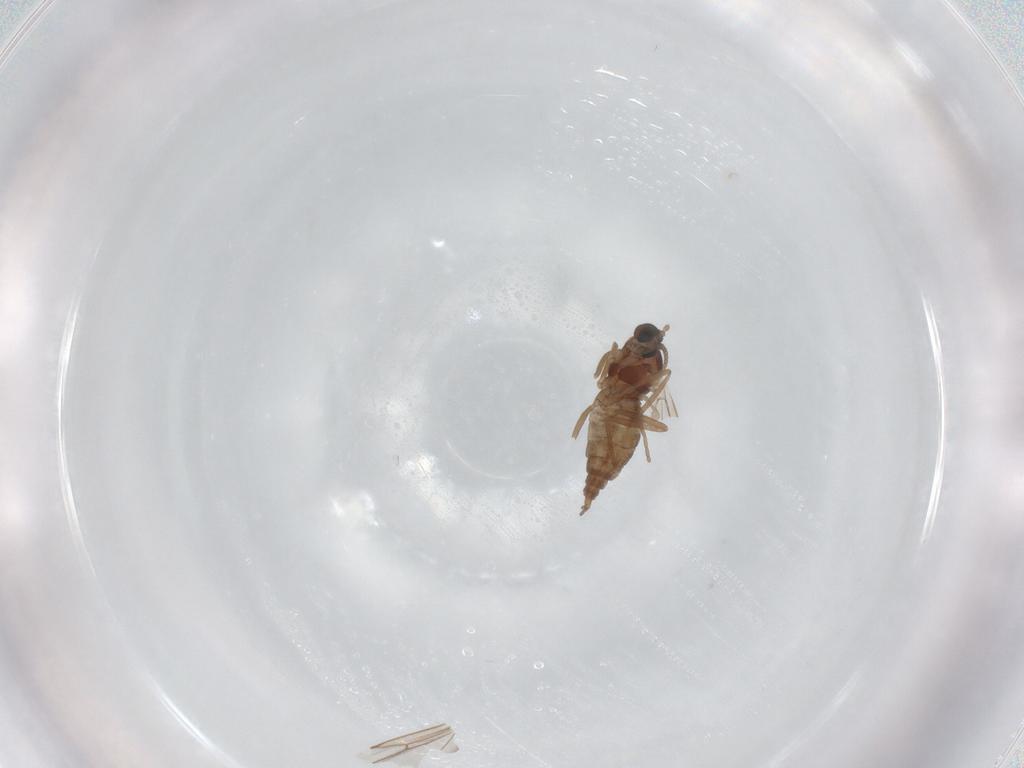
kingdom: Animalia
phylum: Arthropoda
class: Insecta
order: Diptera
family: Cecidomyiidae
